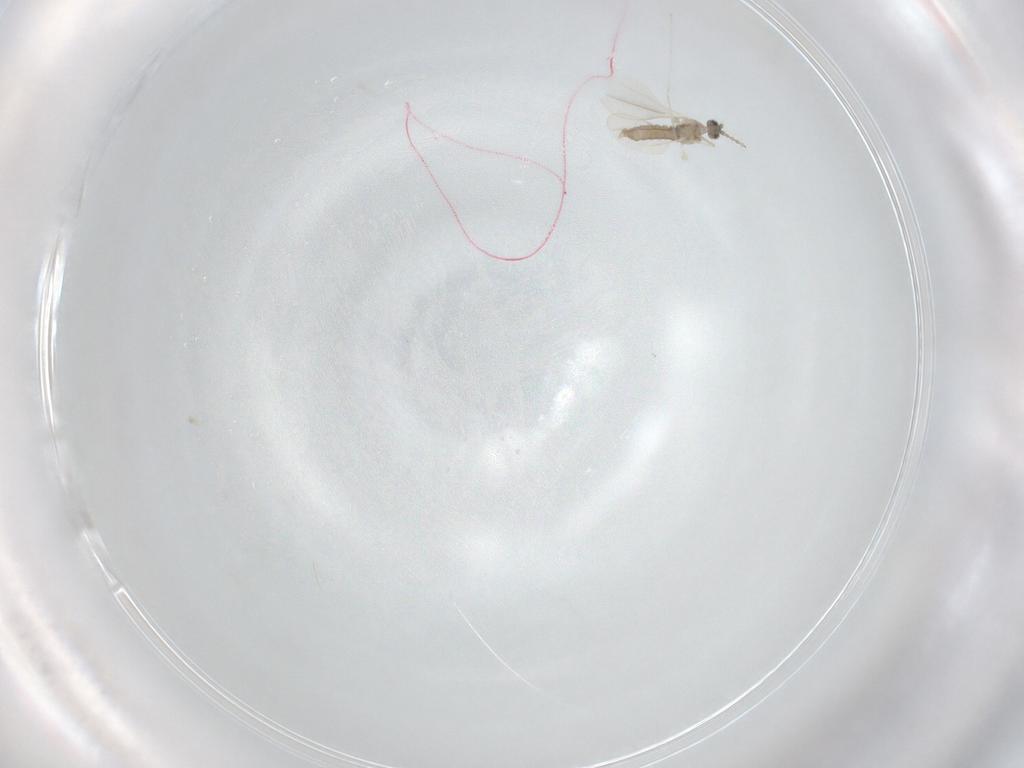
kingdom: Animalia
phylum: Arthropoda
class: Insecta
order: Diptera
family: Cecidomyiidae
